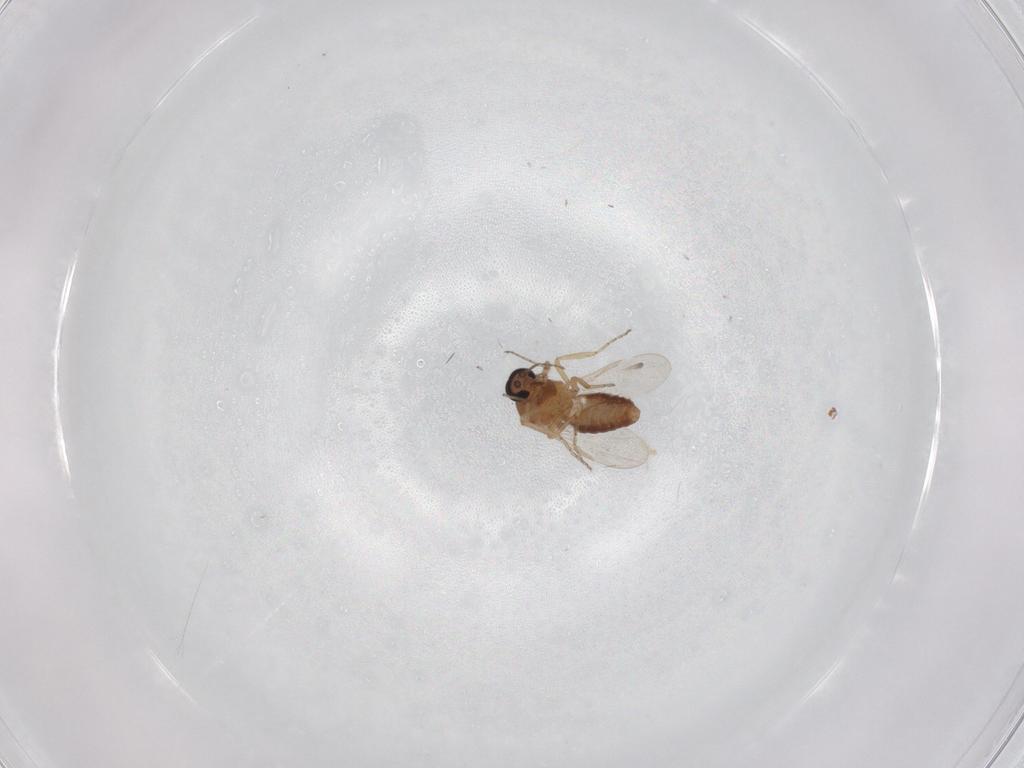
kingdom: Animalia
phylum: Arthropoda
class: Insecta
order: Diptera
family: Ceratopogonidae
